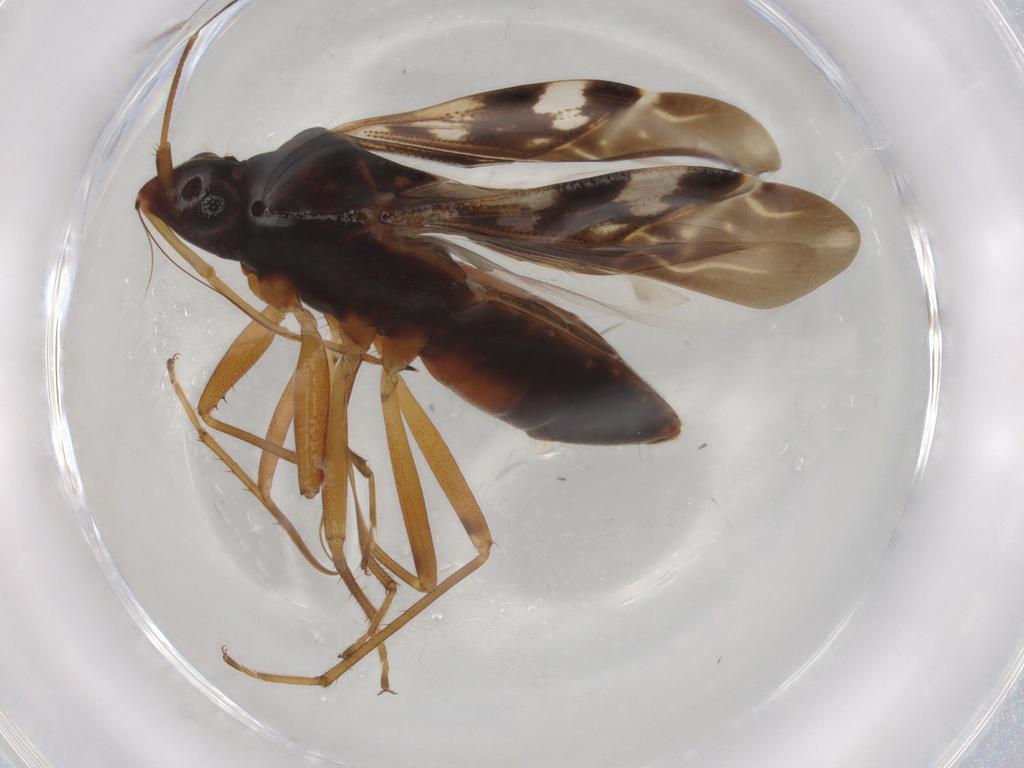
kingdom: Animalia
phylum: Arthropoda
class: Insecta
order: Hemiptera
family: Rhyparochromidae
